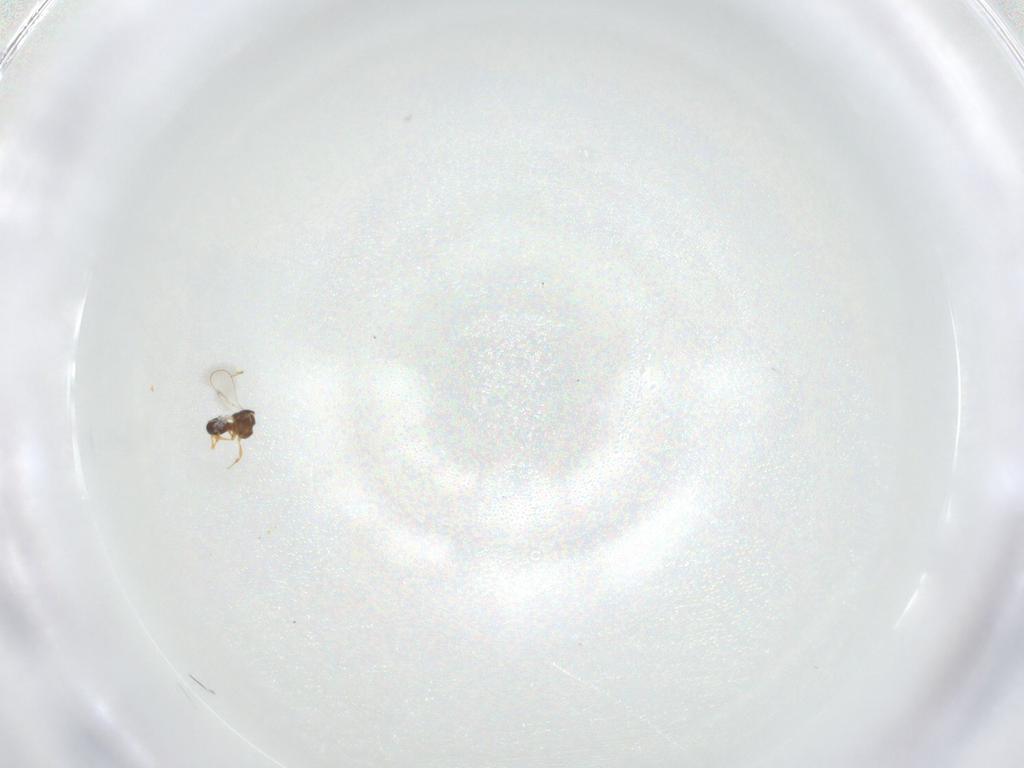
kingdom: Animalia
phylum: Arthropoda
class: Insecta
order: Hymenoptera
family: Platygastridae
